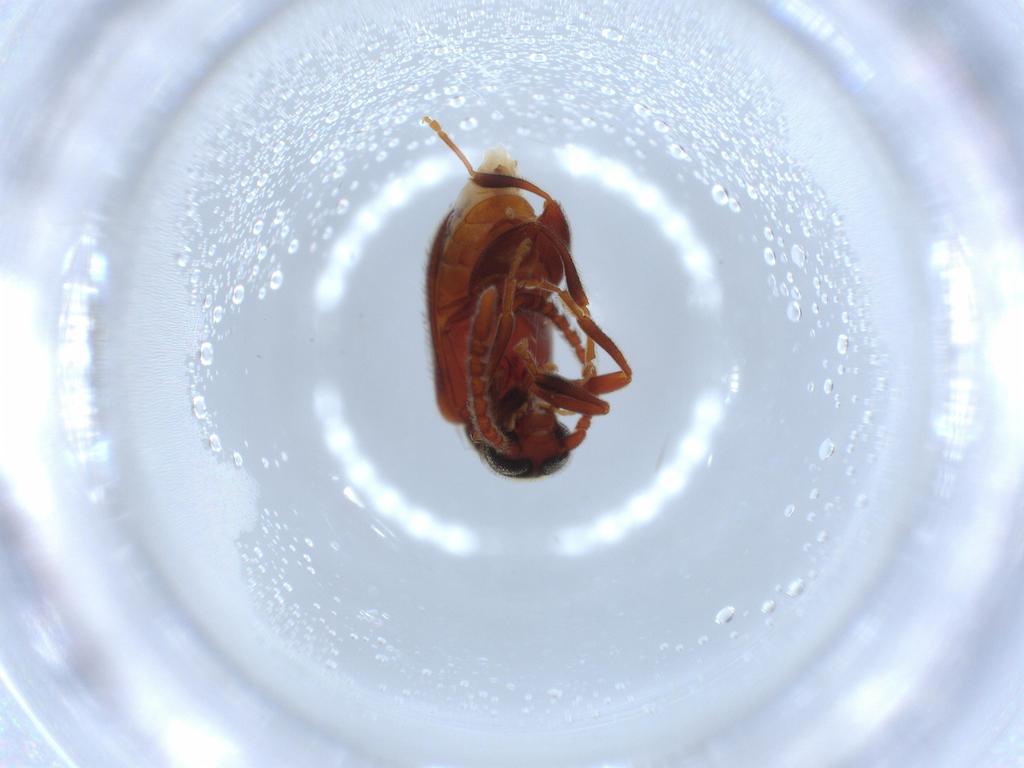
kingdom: Animalia
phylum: Arthropoda
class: Insecta
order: Coleoptera
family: Aderidae
